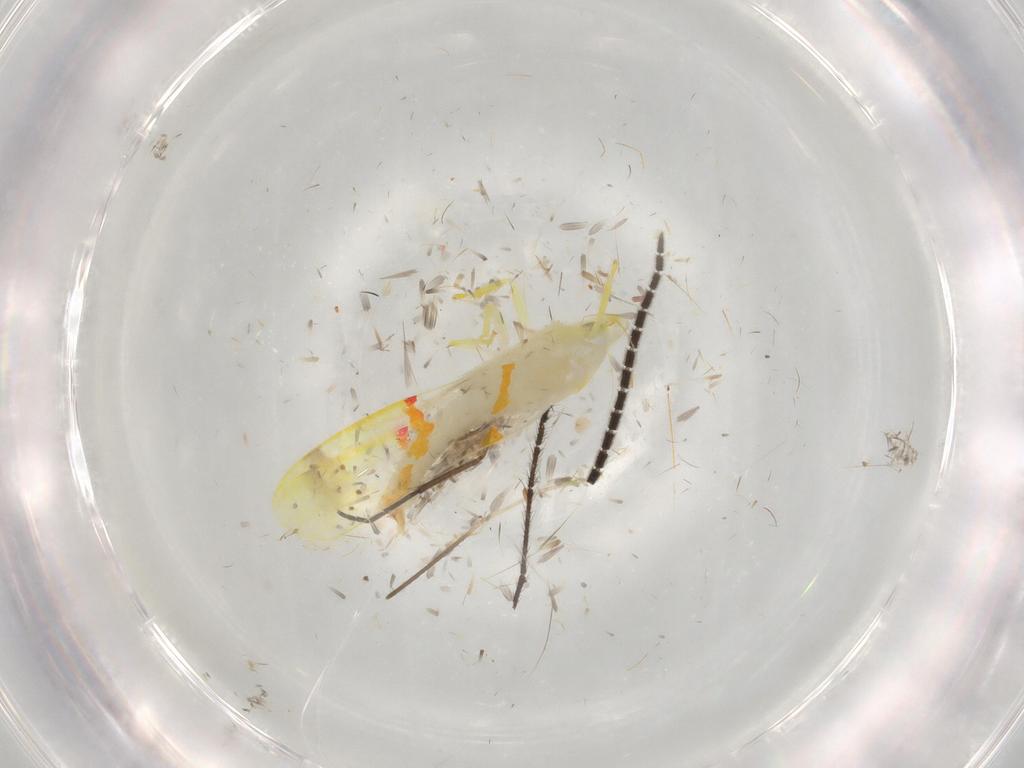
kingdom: Animalia
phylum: Arthropoda
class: Insecta
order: Hemiptera
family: Cicadellidae
